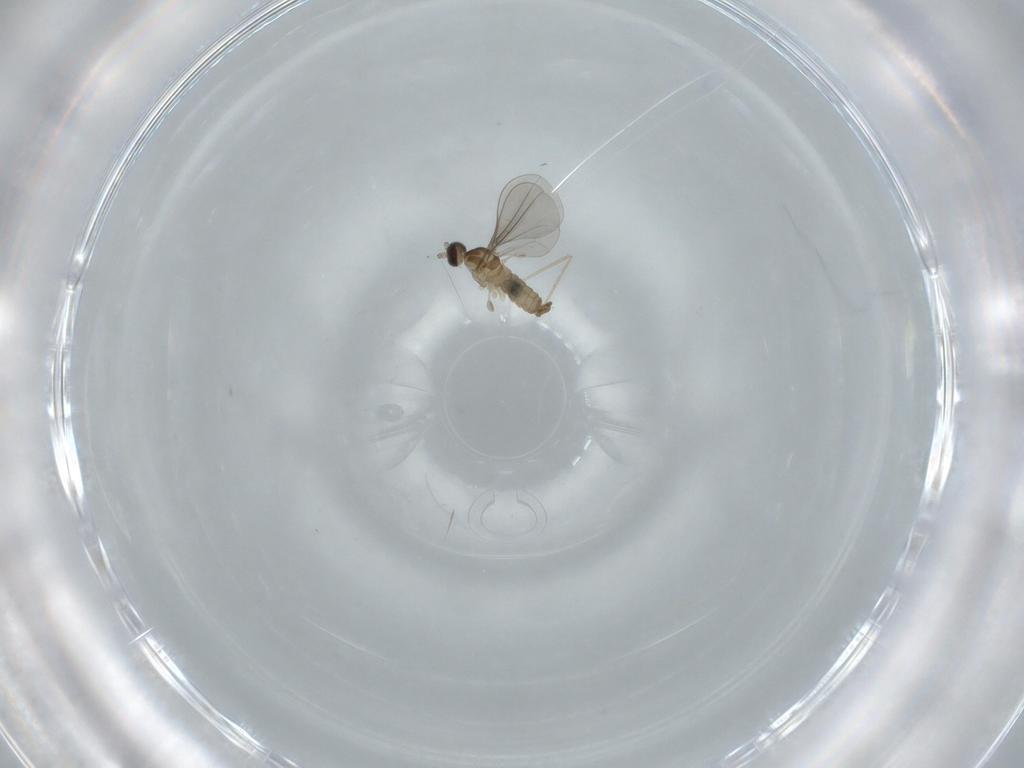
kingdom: Animalia
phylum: Arthropoda
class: Insecta
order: Diptera
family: Cecidomyiidae
